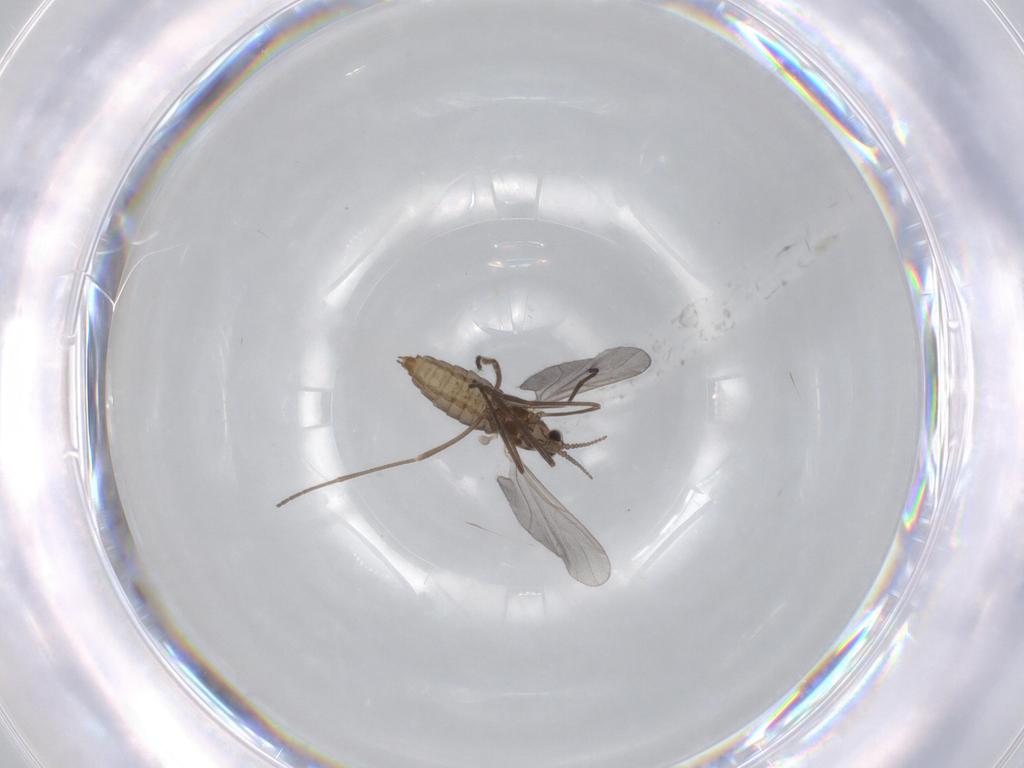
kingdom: Animalia
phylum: Arthropoda
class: Insecta
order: Diptera
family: Cecidomyiidae
